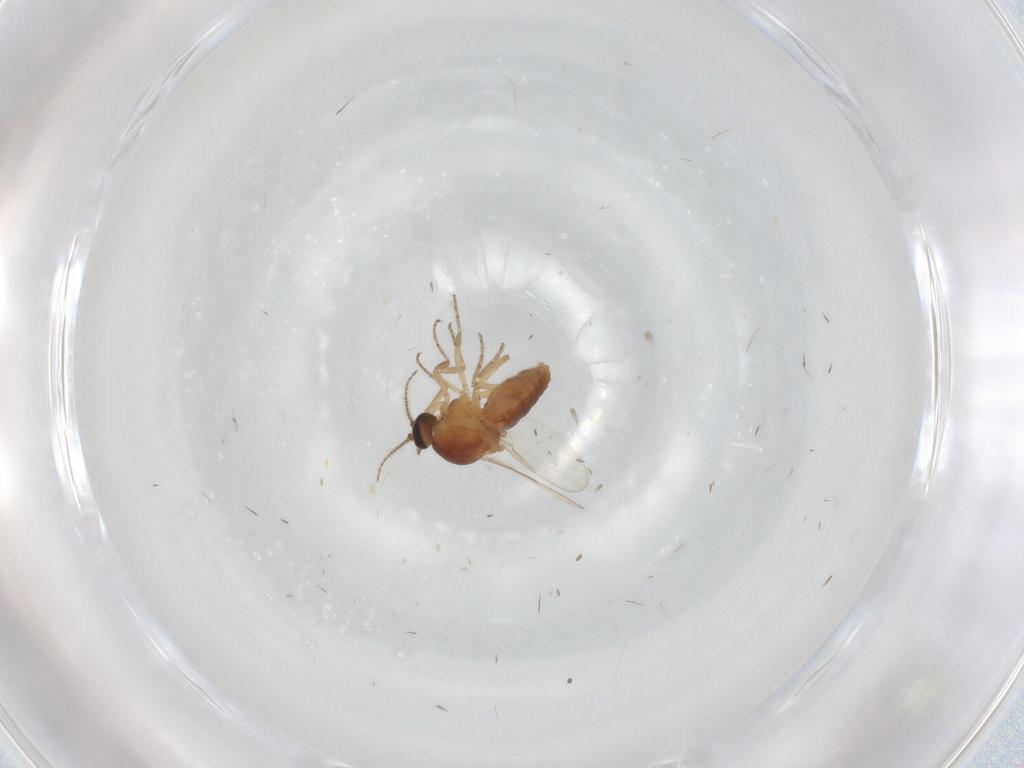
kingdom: Animalia
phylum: Arthropoda
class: Insecta
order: Diptera
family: Ceratopogonidae
